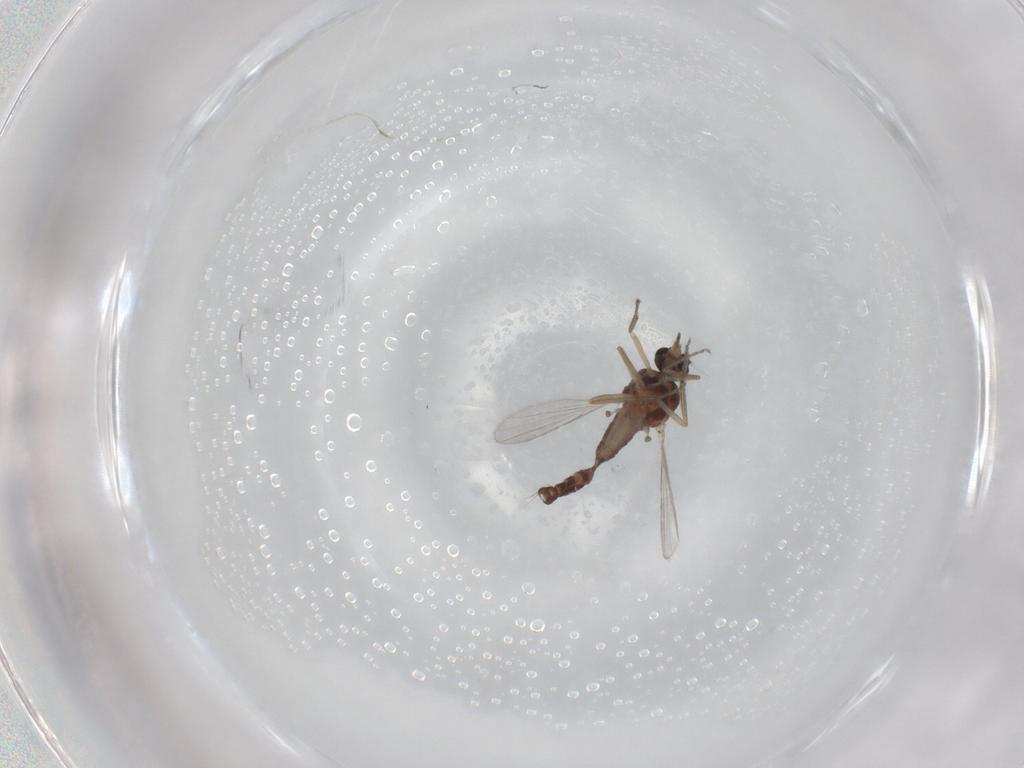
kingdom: Animalia
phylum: Arthropoda
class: Insecta
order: Diptera
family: Ceratopogonidae
